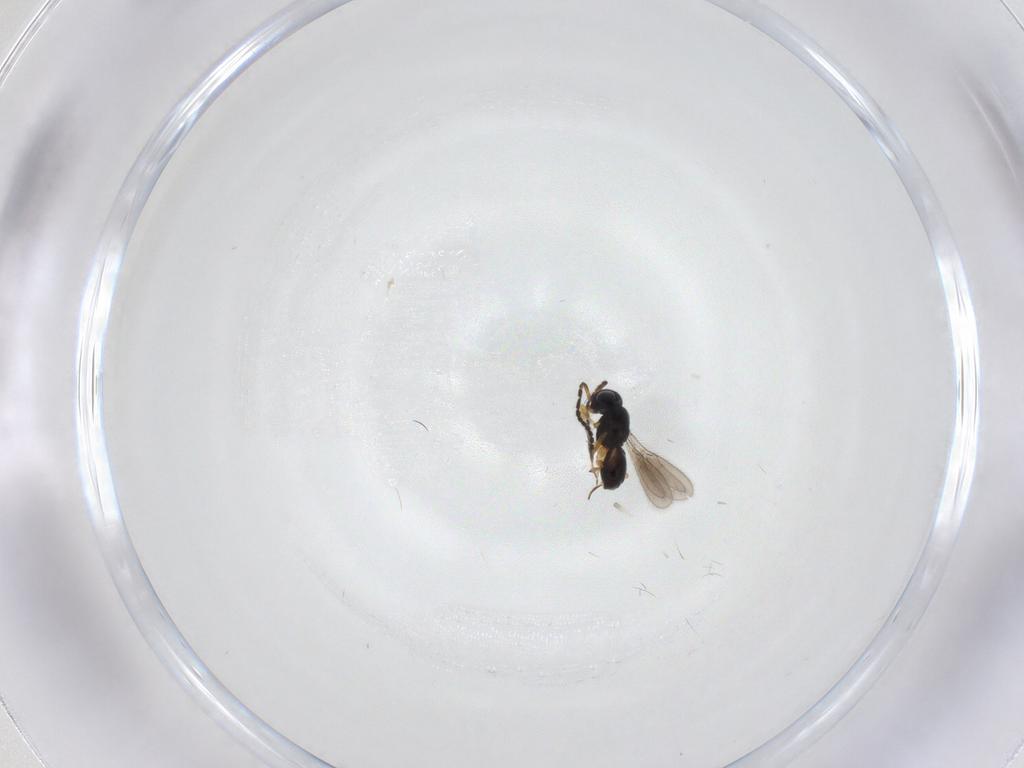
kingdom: Animalia
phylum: Arthropoda
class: Insecta
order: Hymenoptera
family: Scelionidae
